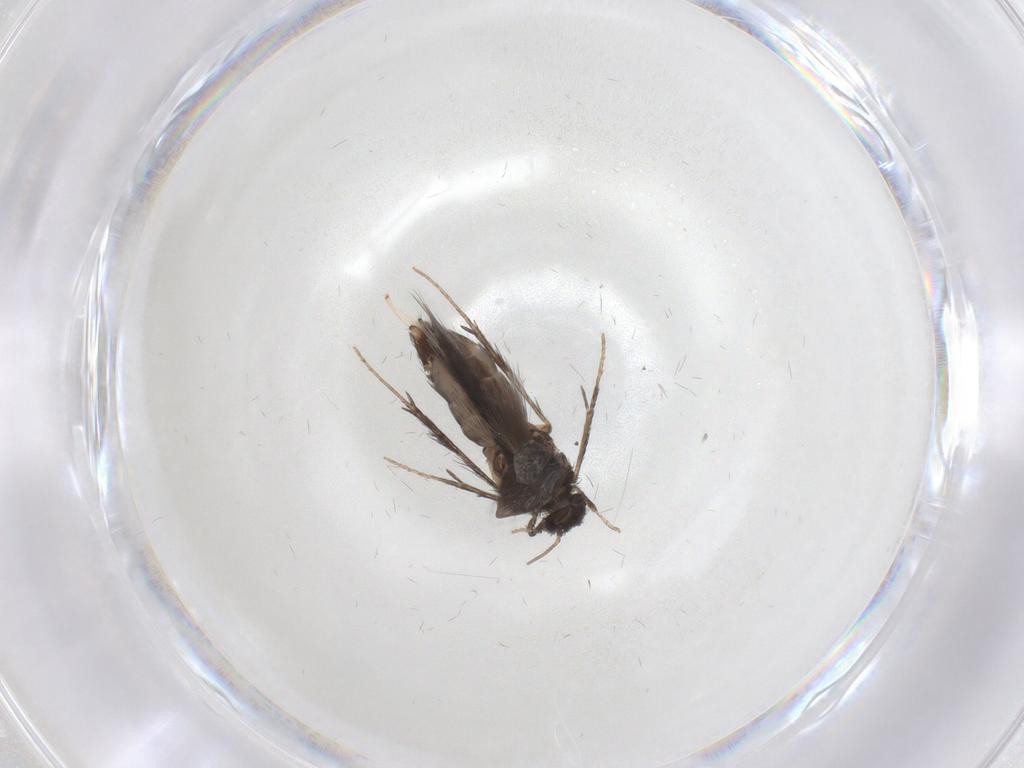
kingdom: Animalia
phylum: Arthropoda
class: Insecta
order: Trichoptera
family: Hydroptilidae
